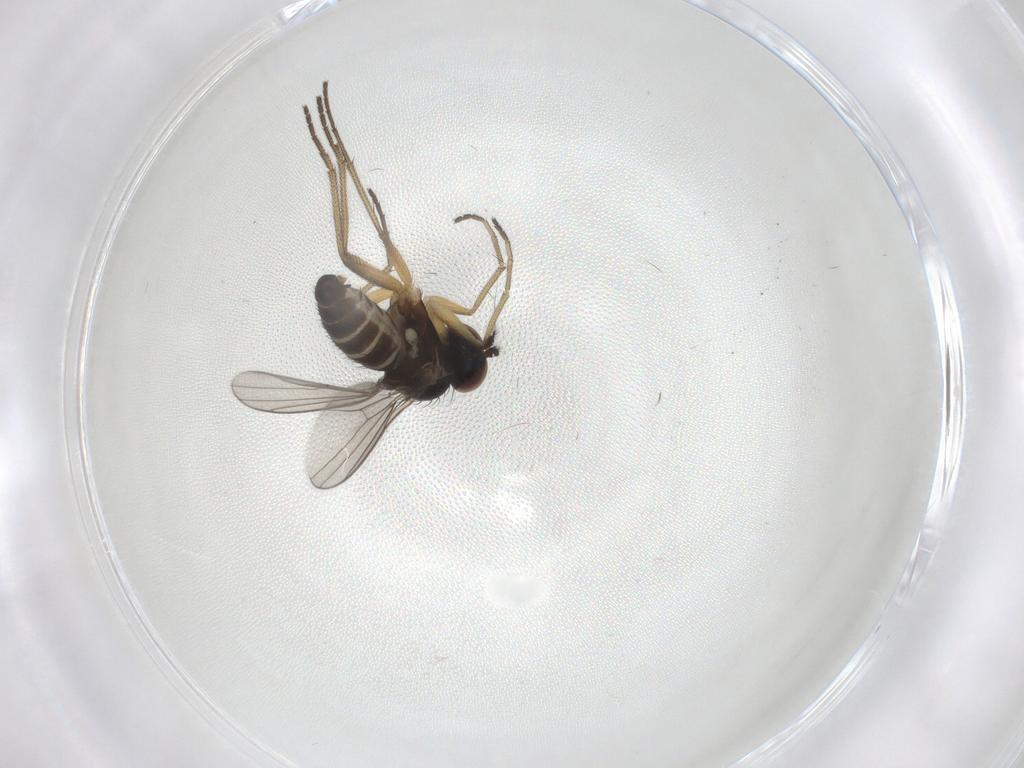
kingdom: Animalia
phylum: Arthropoda
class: Insecta
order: Diptera
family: Dolichopodidae
